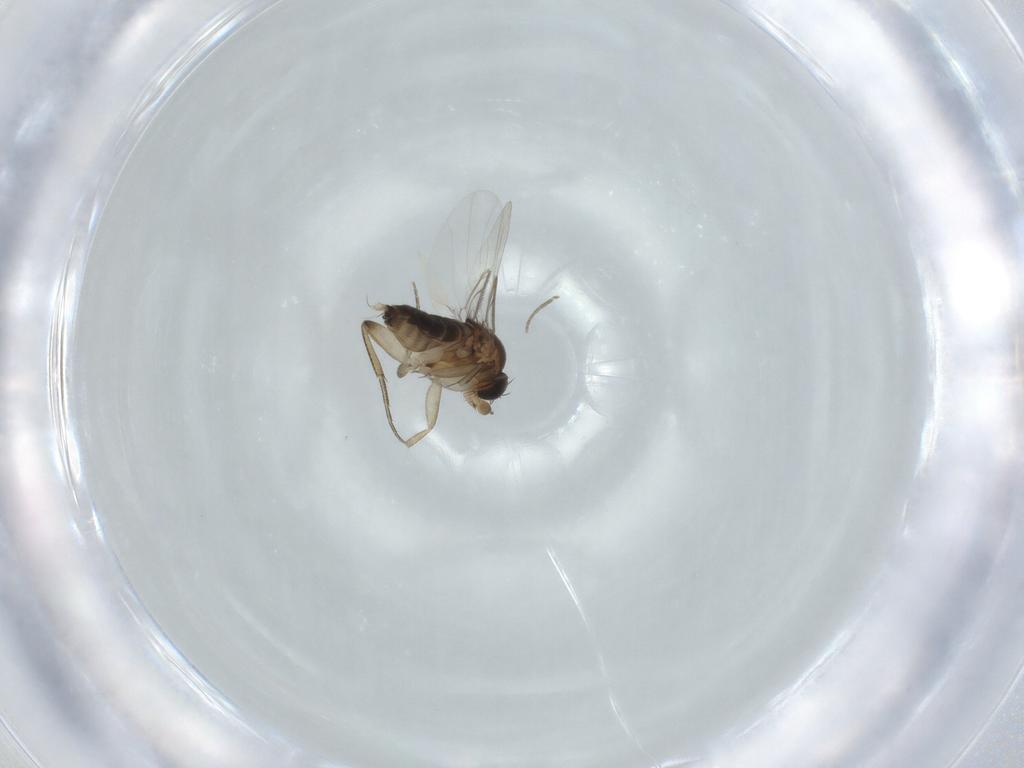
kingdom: Animalia
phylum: Arthropoda
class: Insecta
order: Diptera
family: Phoridae
